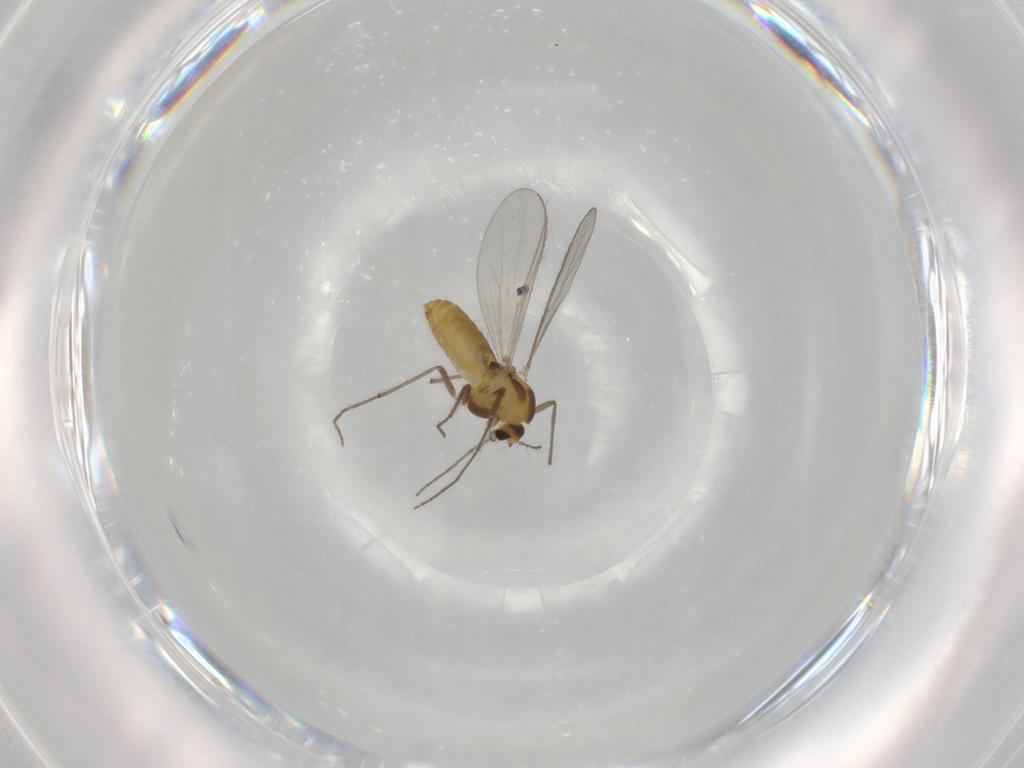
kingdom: Animalia
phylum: Arthropoda
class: Insecta
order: Diptera
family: Chironomidae
